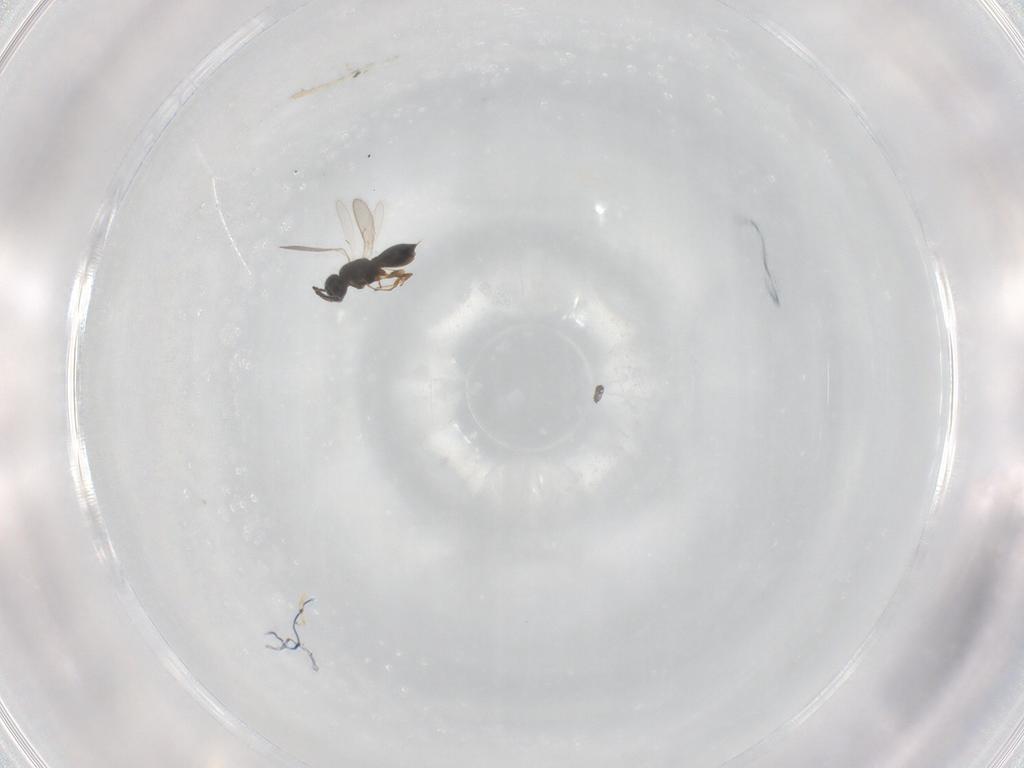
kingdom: Animalia
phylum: Arthropoda
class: Insecta
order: Hymenoptera
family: Scelionidae
